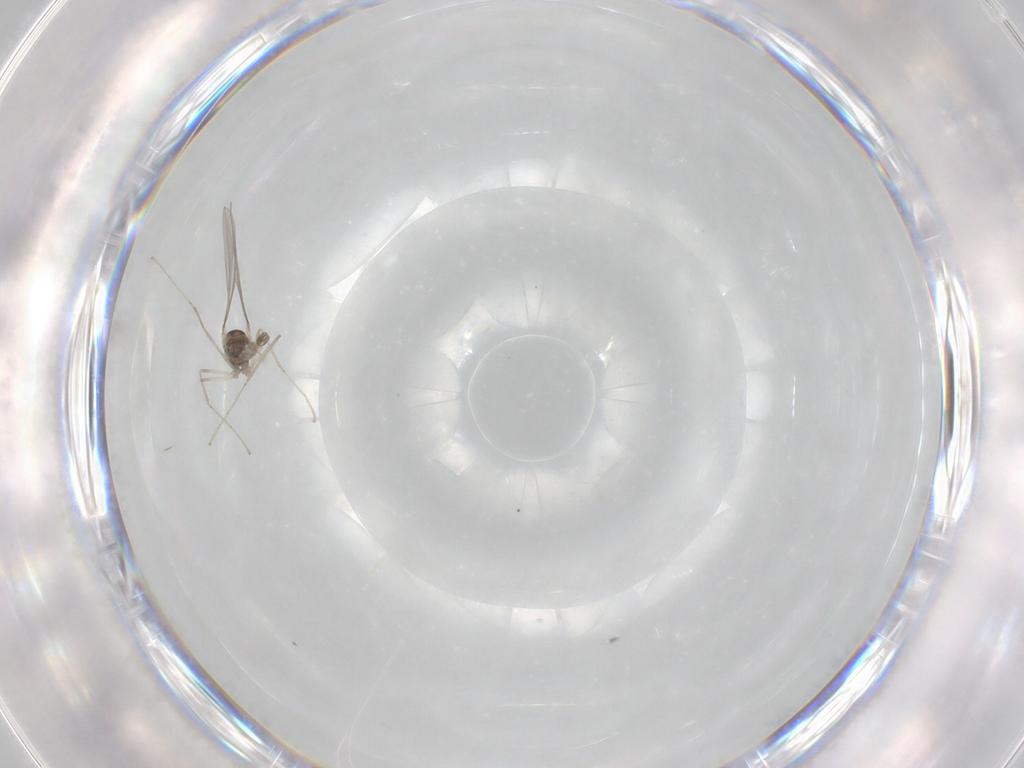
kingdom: Animalia
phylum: Arthropoda
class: Insecta
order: Diptera
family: Cecidomyiidae
